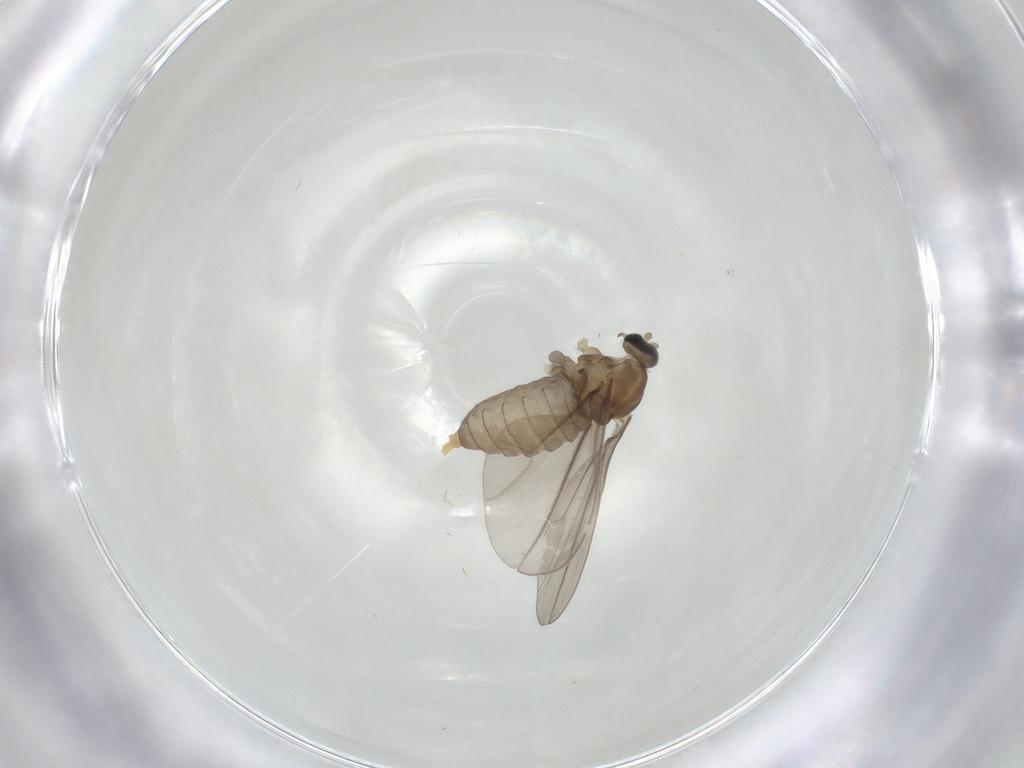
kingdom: Animalia
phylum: Arthropoda
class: Insecta
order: Diptera
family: Cecidomyiidae
